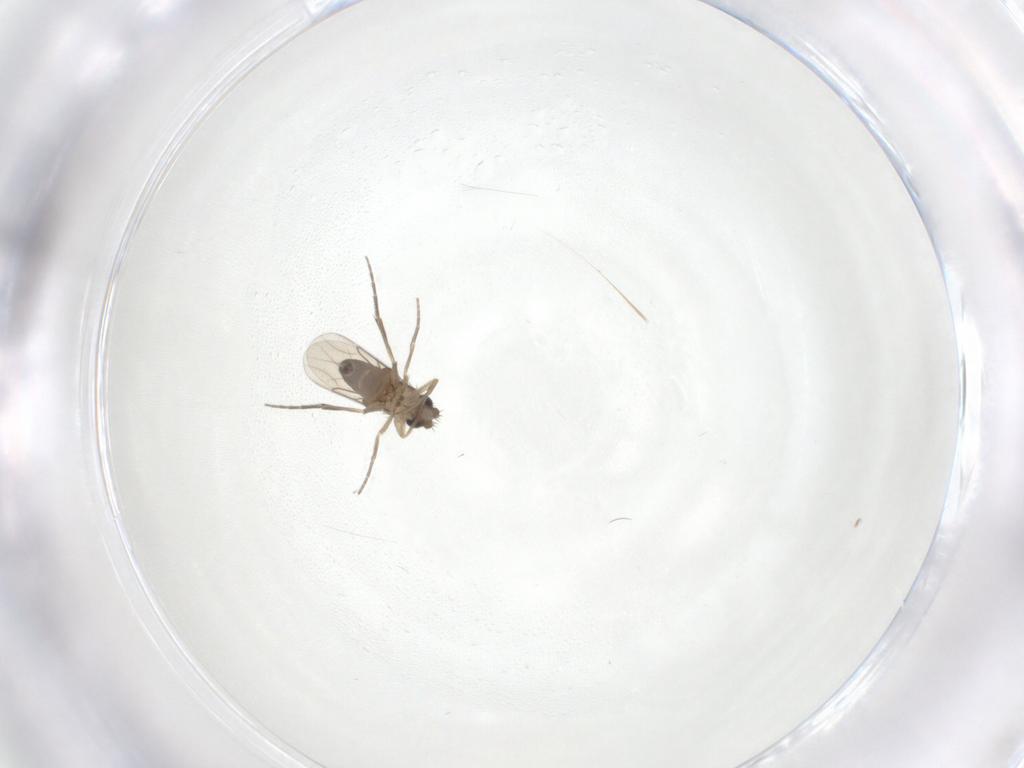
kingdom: Animalia
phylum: Arthropoda
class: Insecta
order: Diptera
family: Phoridae
